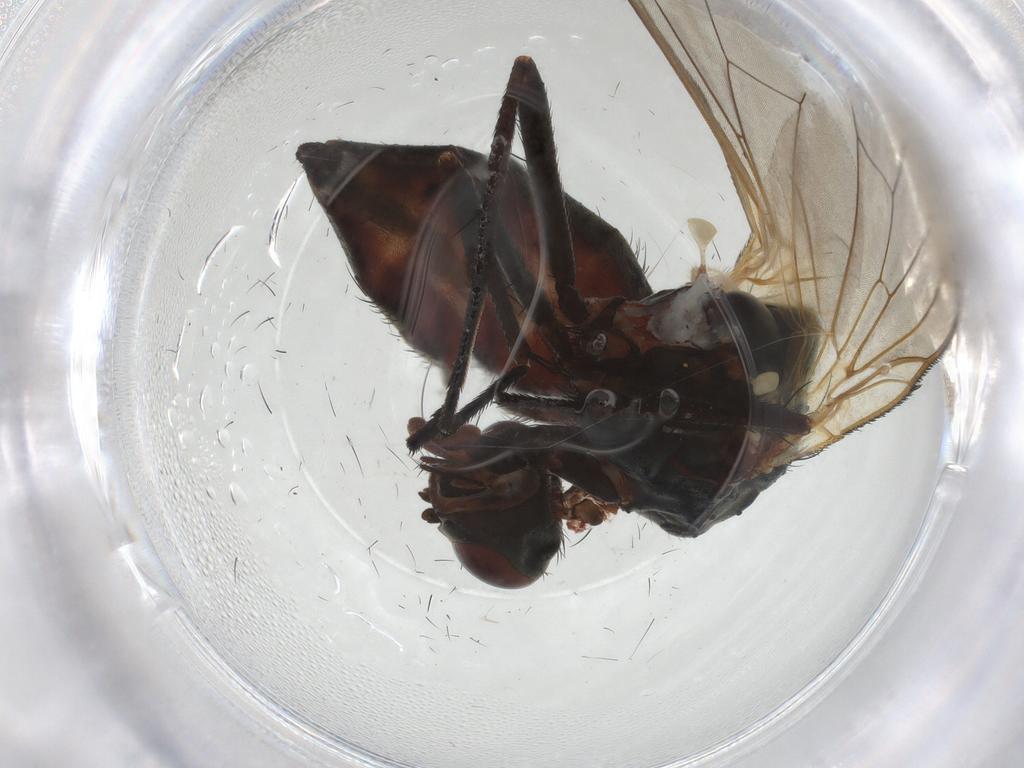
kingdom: Animalia
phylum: Arthropoda
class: Insecta
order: Diptera
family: Anthomyiidae
